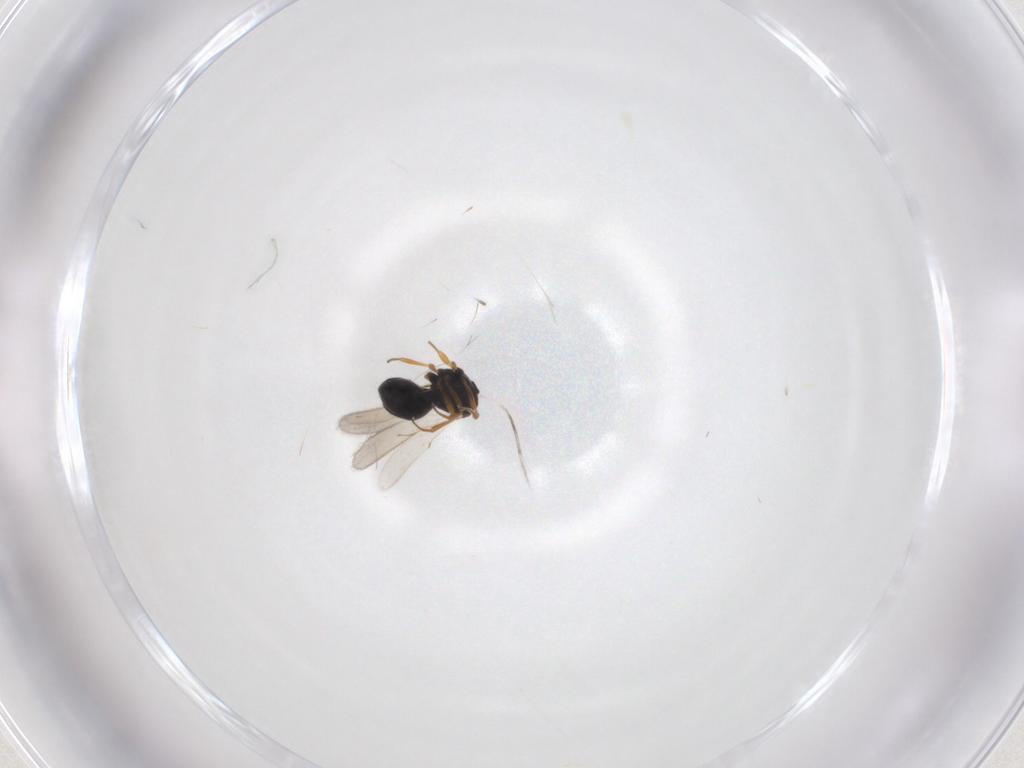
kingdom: Animalia
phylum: Arthropoda
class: Insecta
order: Hymenoptera
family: Scelionidae
